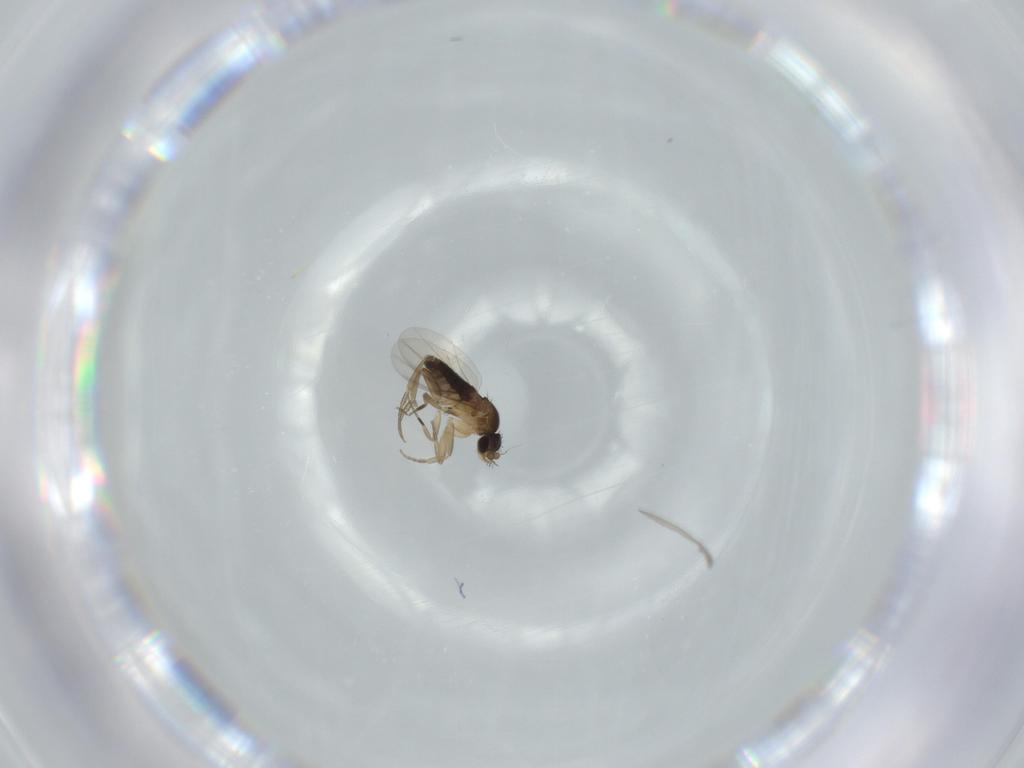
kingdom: Animalia
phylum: Arthropoda
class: Insecta
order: Diptera
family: Phoridae
